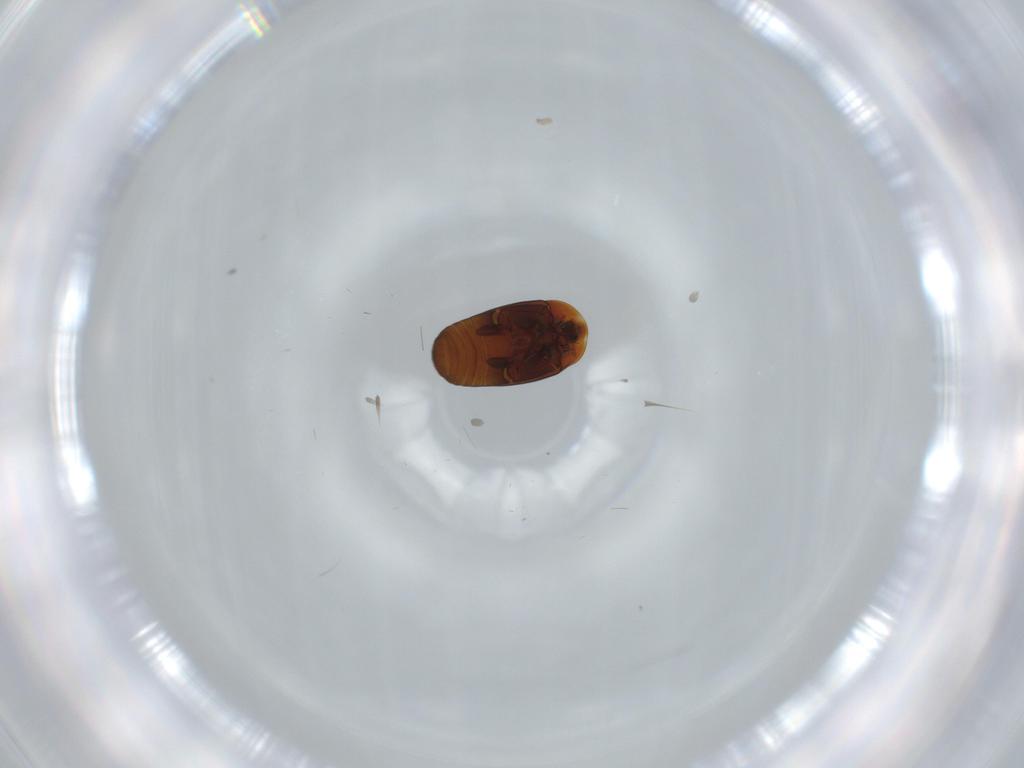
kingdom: Animalia
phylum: Arthropoda
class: Insecta
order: Coleoptera
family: Corylophidae
